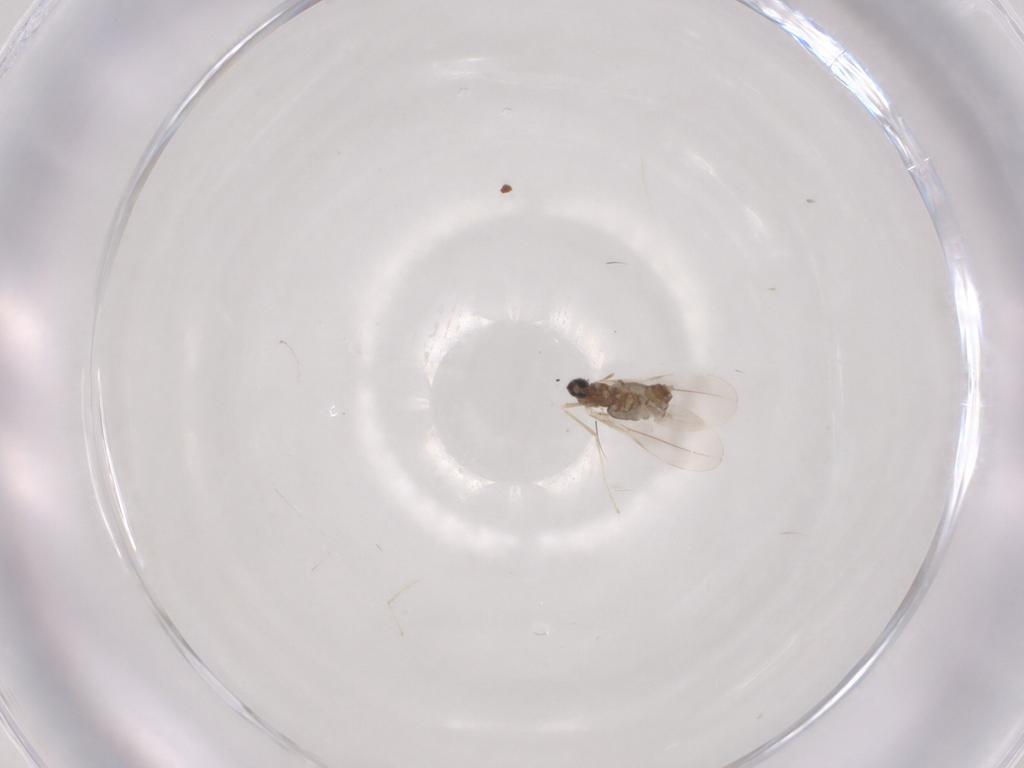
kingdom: Animalia
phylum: Arthropoda
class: Insecta
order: Diptera
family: Cecidomyiidae
